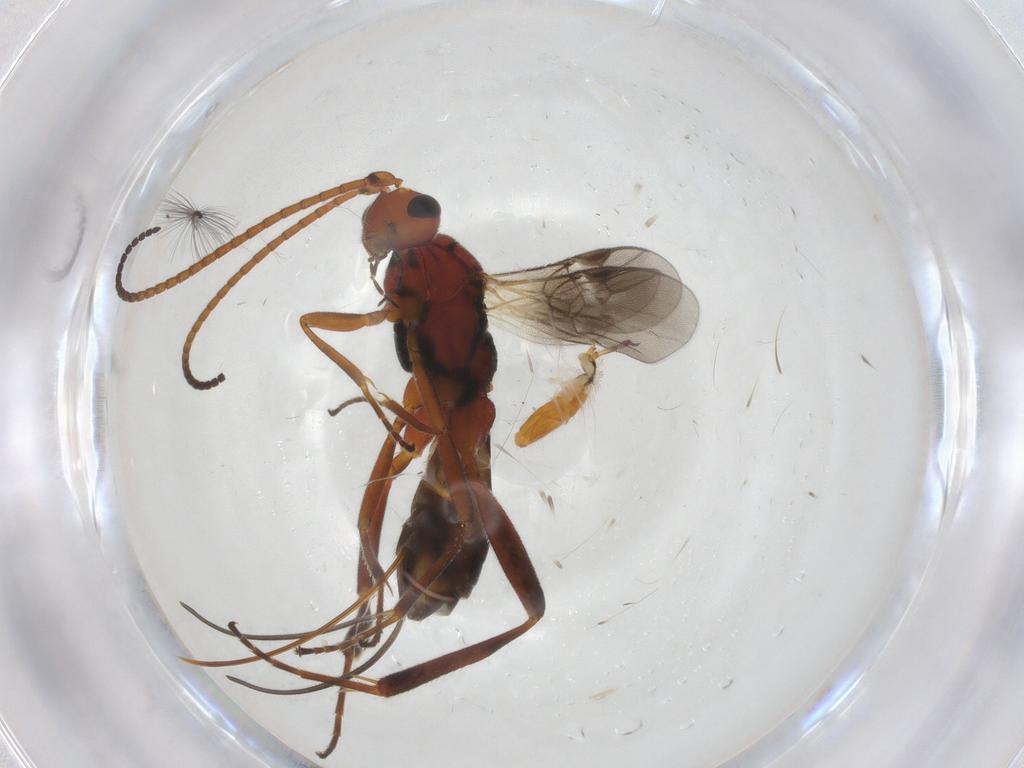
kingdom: Animalia
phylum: Arthropoda
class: Insecta
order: Hymenoptera
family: Braconidae
